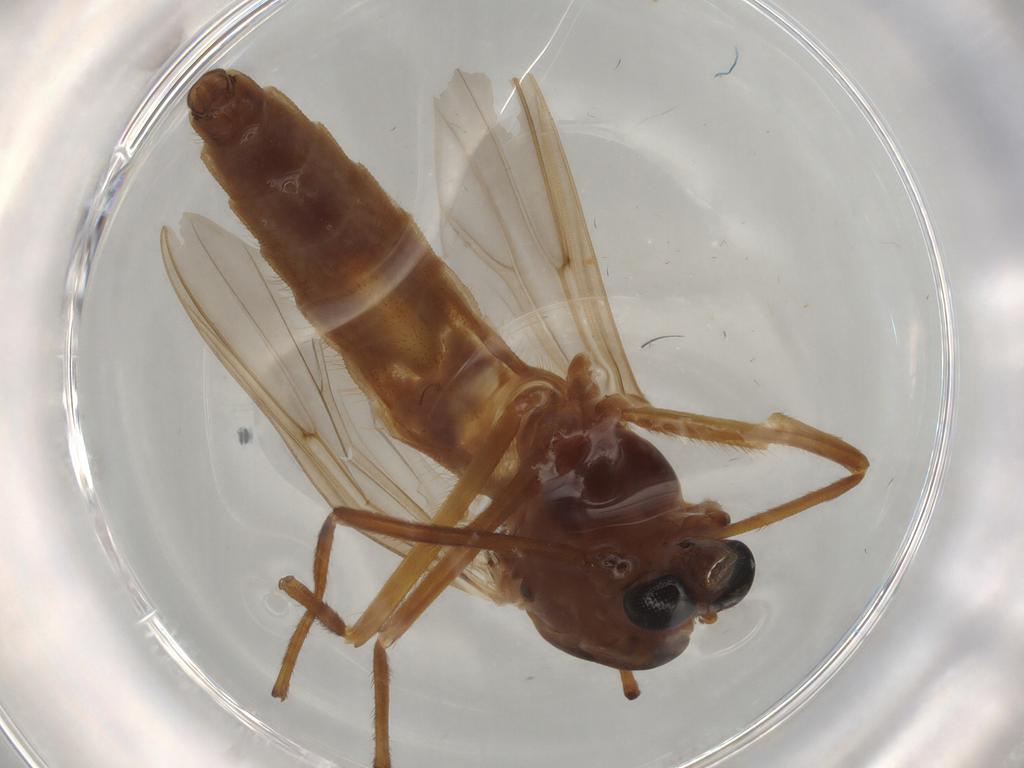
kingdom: Animalia
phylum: Arthropoda
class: Insecta
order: Diptera
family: Chironomidae
